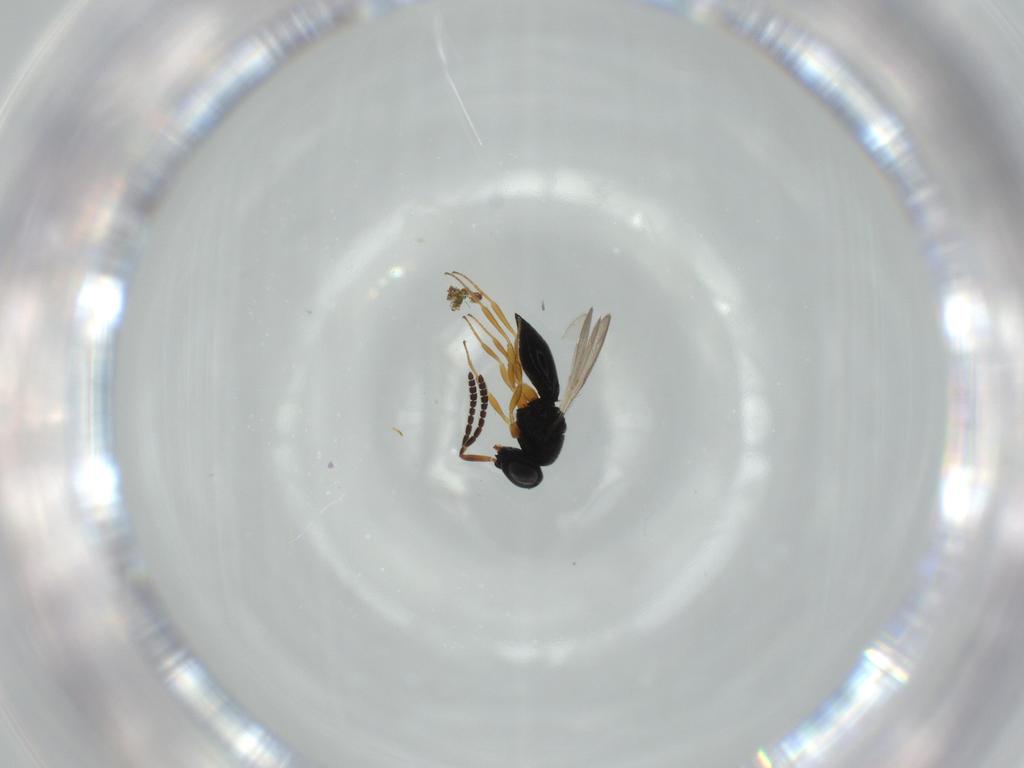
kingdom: Animalia
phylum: Arthropoda
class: Insecta
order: Hymenoptera
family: Scelionidae
